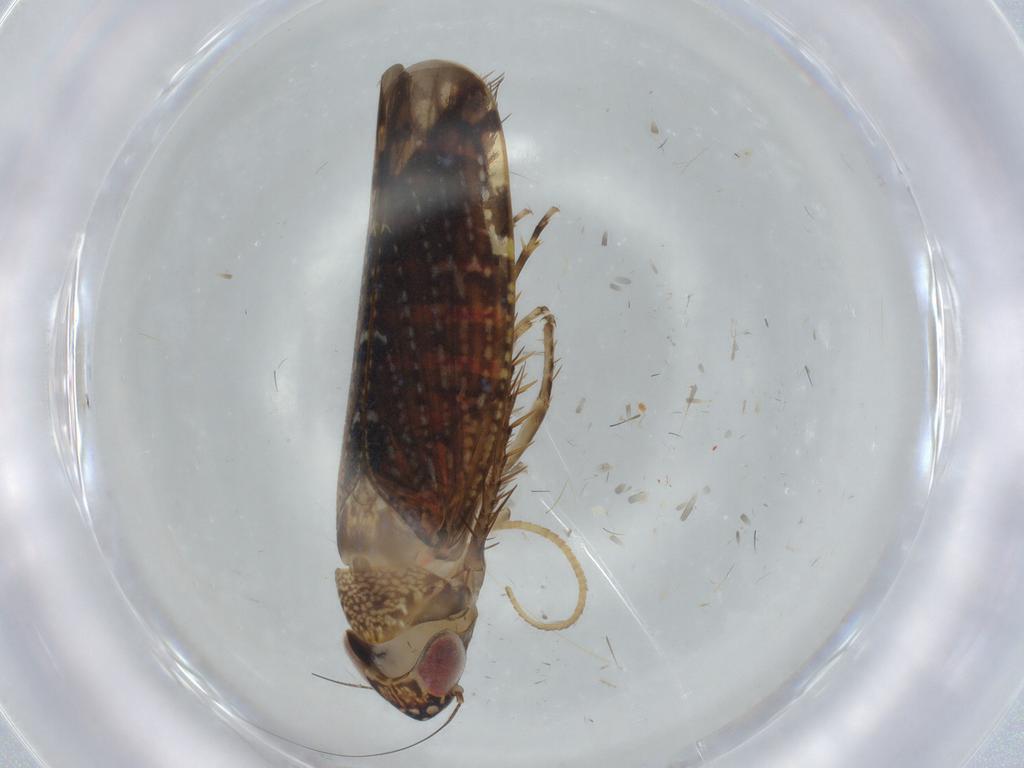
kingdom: Animalia
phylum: Arthropoda
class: Insecta
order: Hemiptera
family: Cicadellidae
